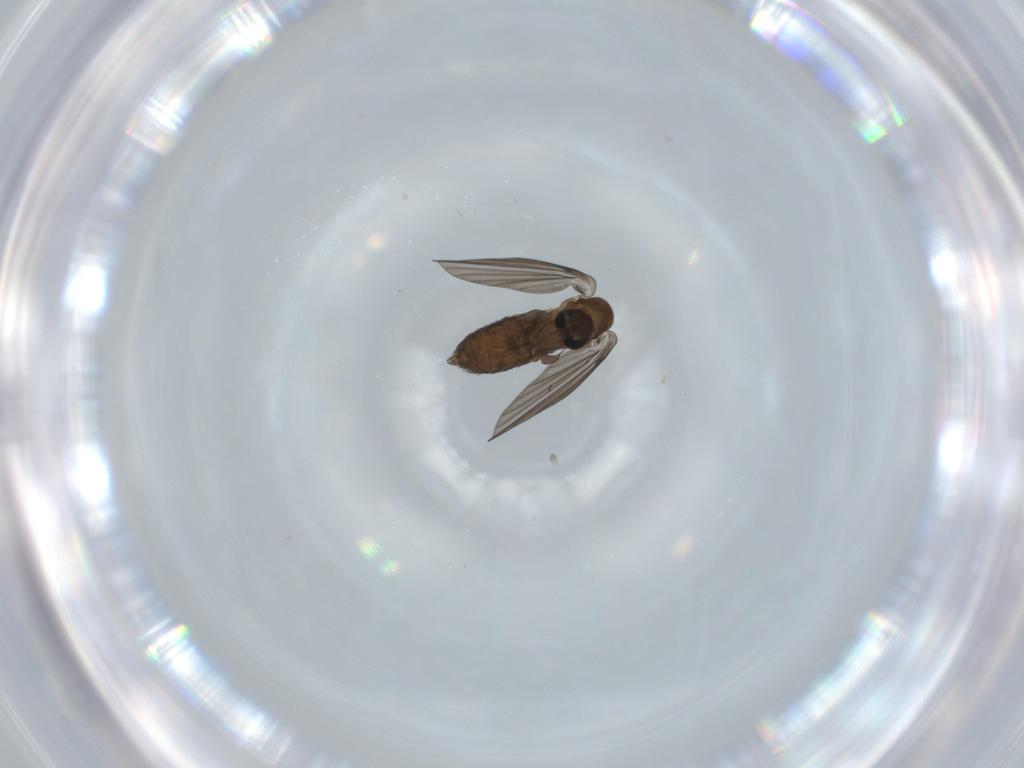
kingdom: Animalia
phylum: Arthropoda
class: Insecta
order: Diptera
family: Psychodidae
